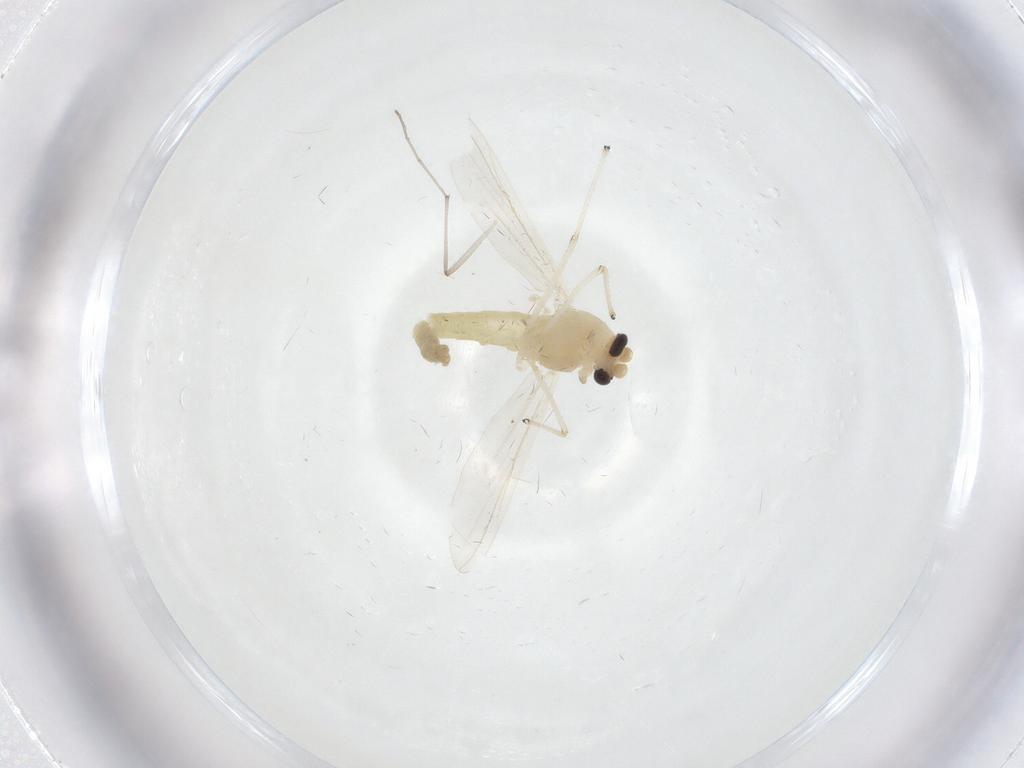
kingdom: Animalia
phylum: Arthropoda
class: Insecta
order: Diptera
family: Chironomidae
